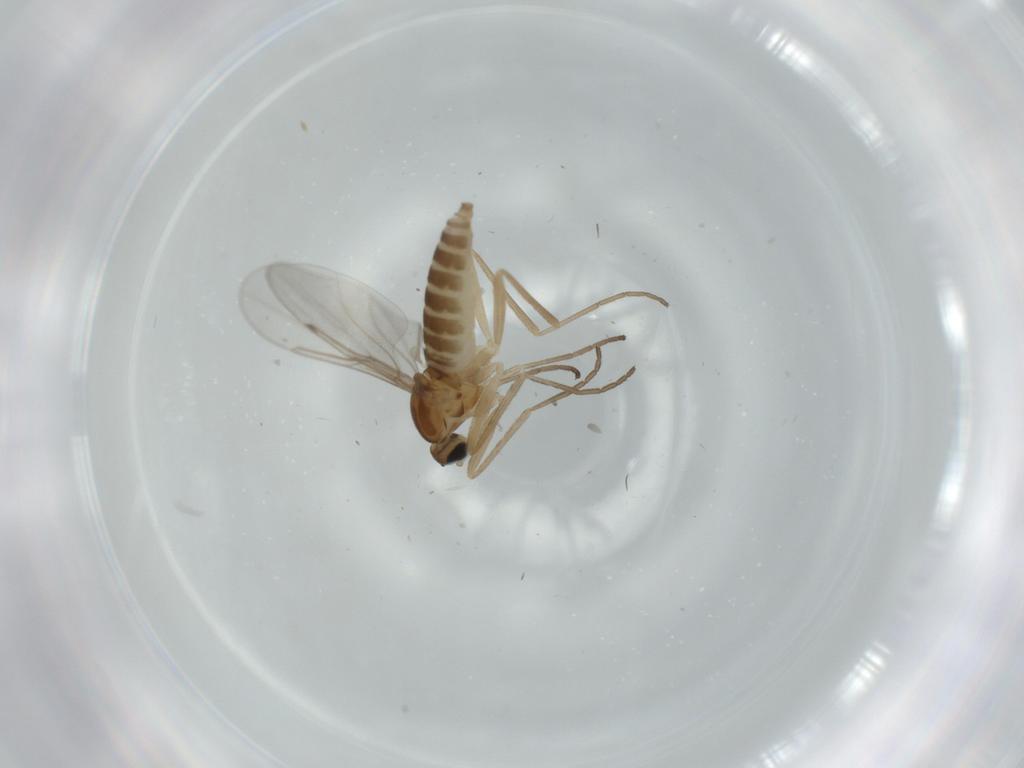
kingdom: Animalia
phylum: Arthropoda
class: Insecta
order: Diptera
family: Cecidomyiidae
